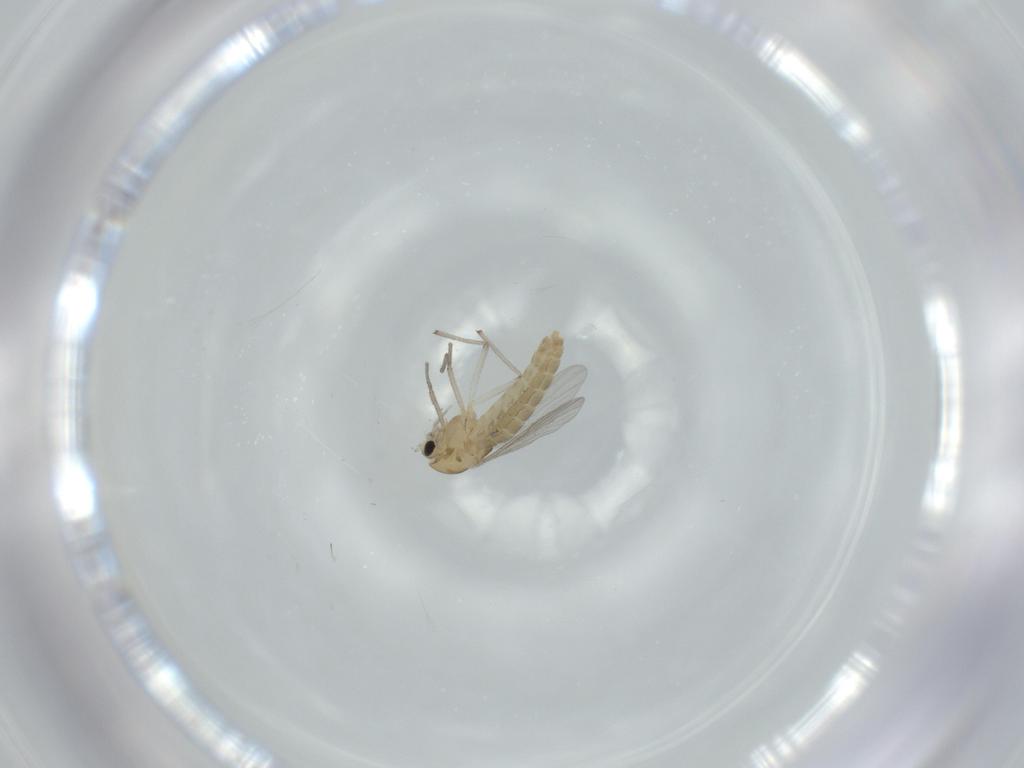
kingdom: Animalia
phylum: Arthropoda
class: Insecta
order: Diptera
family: Chironomidae
